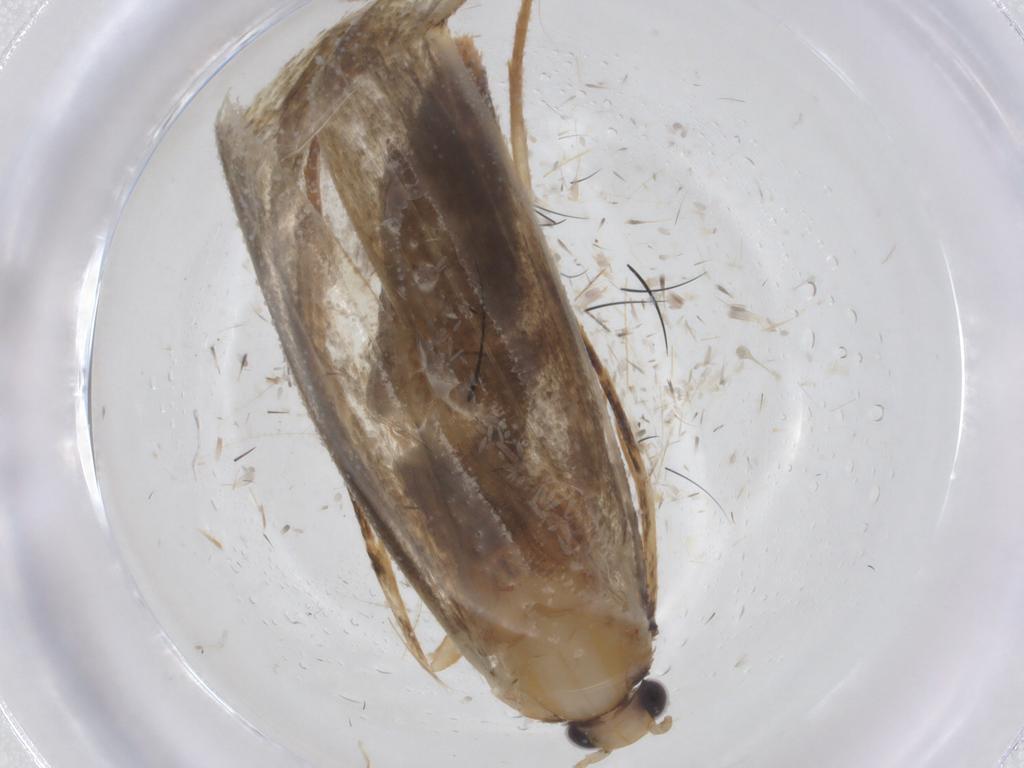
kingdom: Animalia
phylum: Arthropoda
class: Insecta
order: Lepidoptera
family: Tineidae
